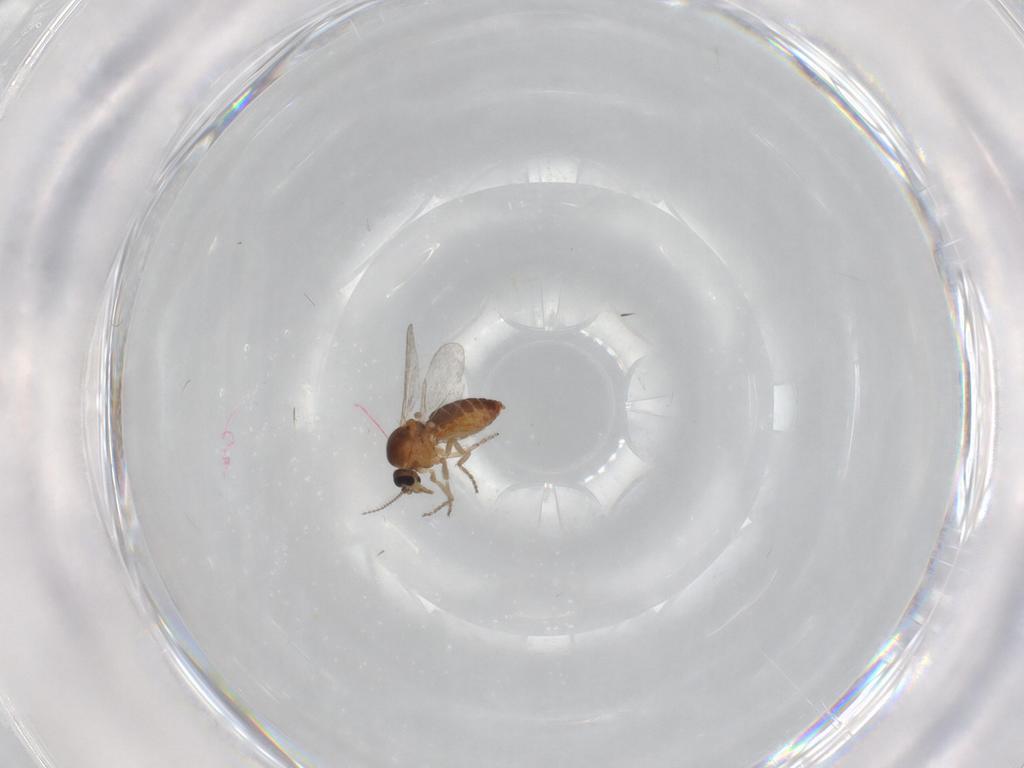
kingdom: Animalia
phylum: Arthropoda
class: Insecta
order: Diptera
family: Ceratopogonidae
